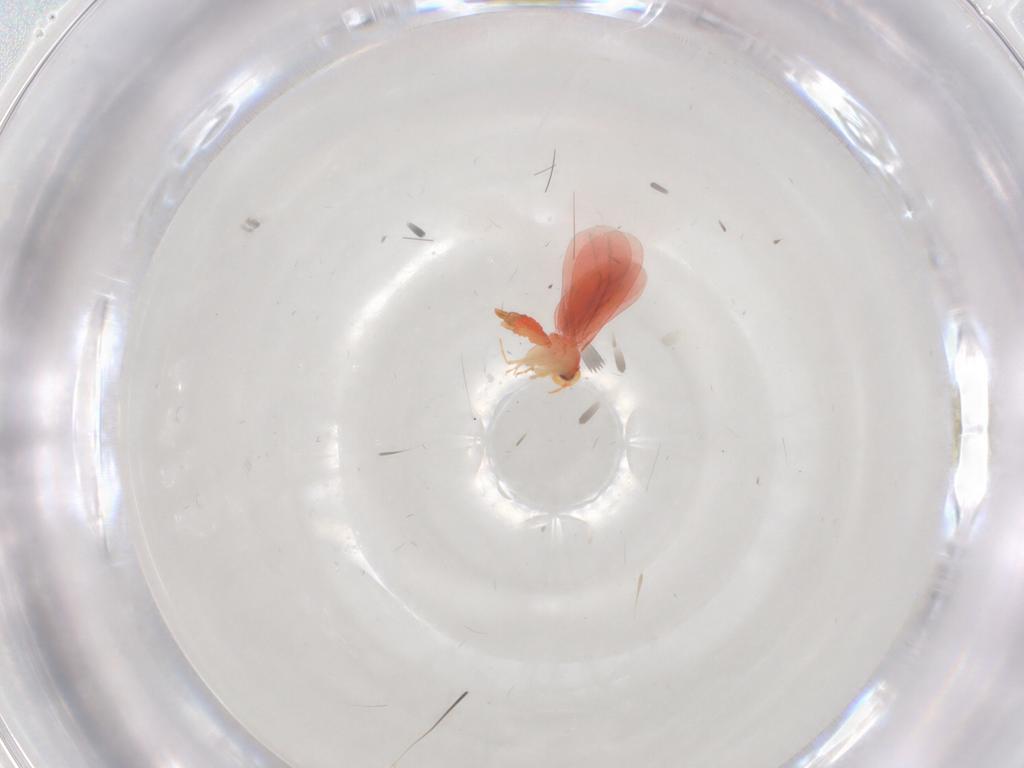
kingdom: Animalia
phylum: Arthropoda
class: Insecta
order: Hemiptera
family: Aleyrodidae
